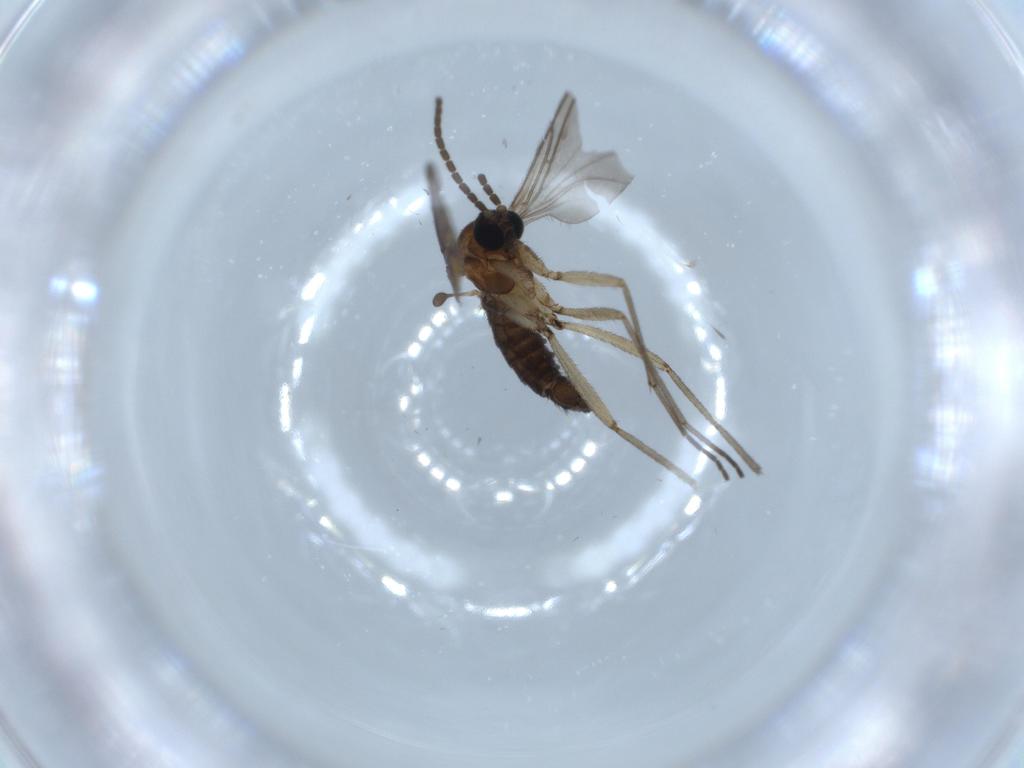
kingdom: Animalia
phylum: Arthropoda
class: Insecta
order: Diptera
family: Sciaridae
